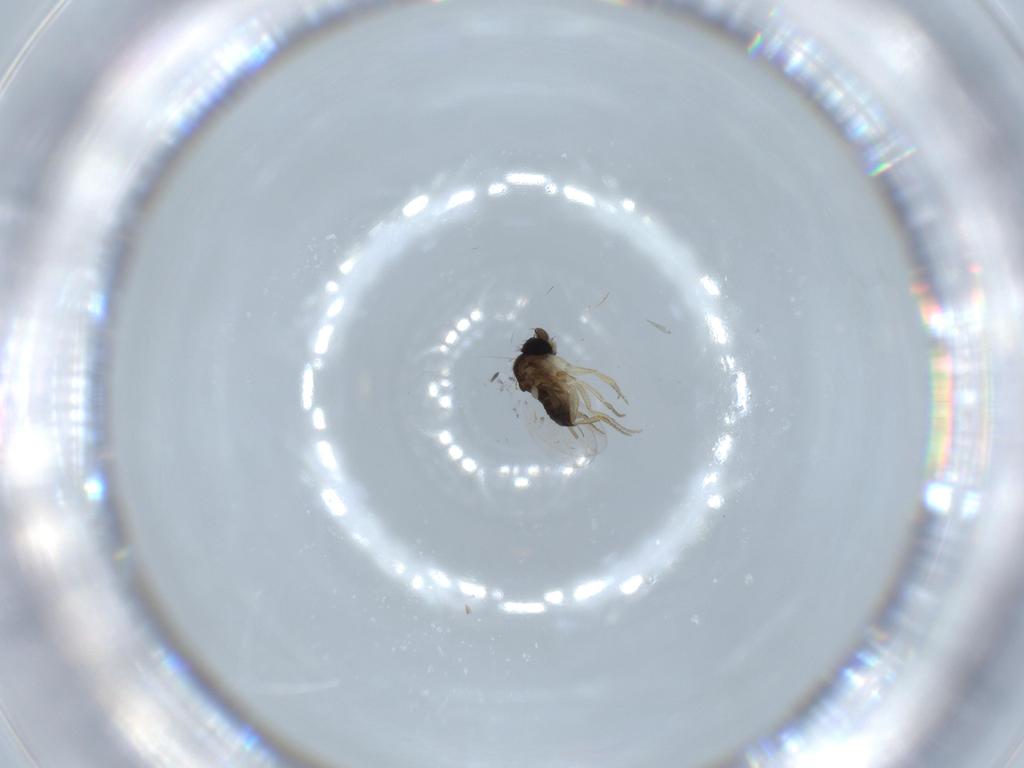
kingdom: Animalia
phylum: Arthropoda
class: Insecta
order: Diptera
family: Phoridae
